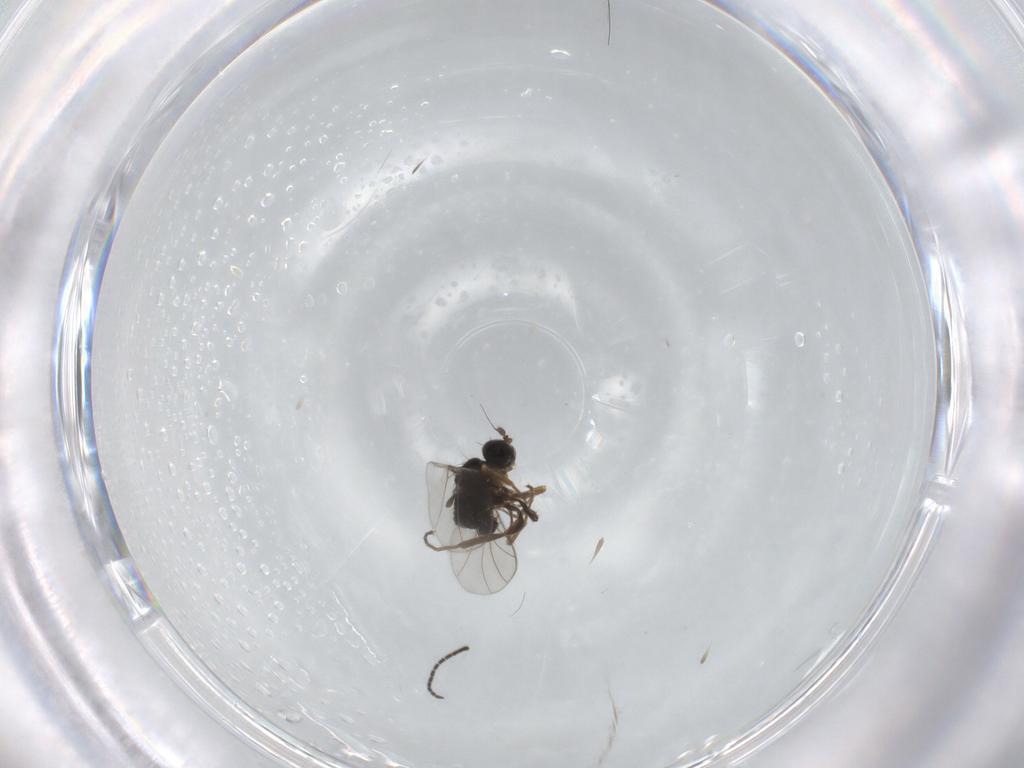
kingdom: Animalia
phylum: Arthropoda
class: Insecta
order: Diptera
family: Hybotidae
